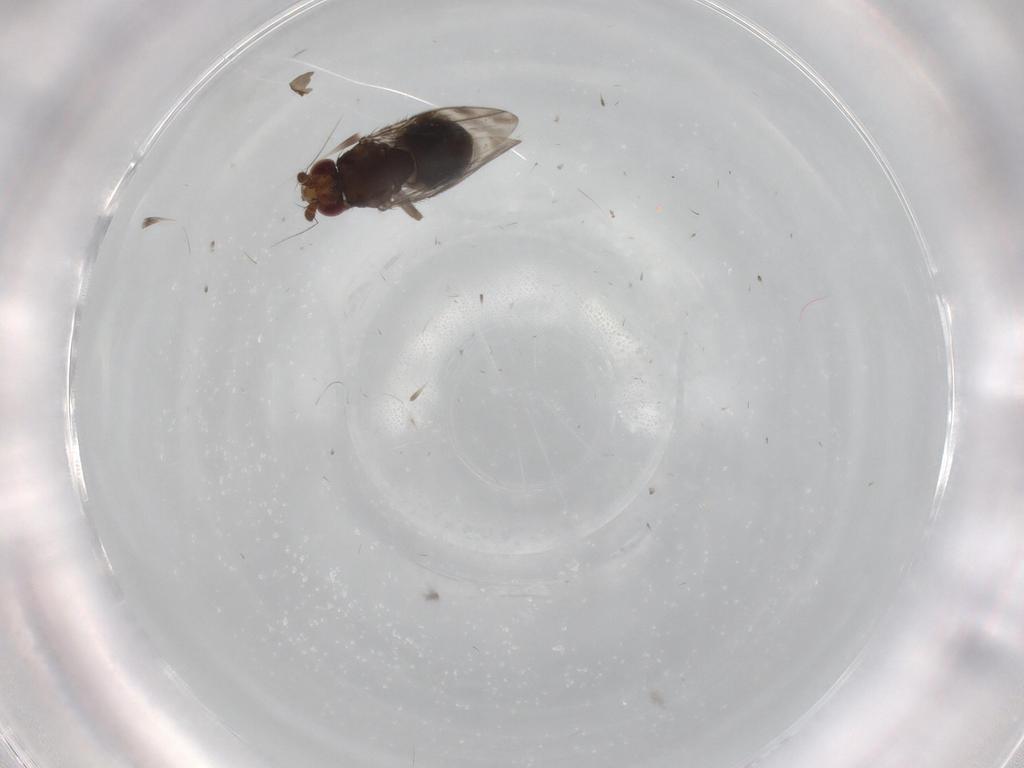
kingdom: Animalia
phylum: Arthropoda
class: Insecta
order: Diptera
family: Sphaeroceridae
